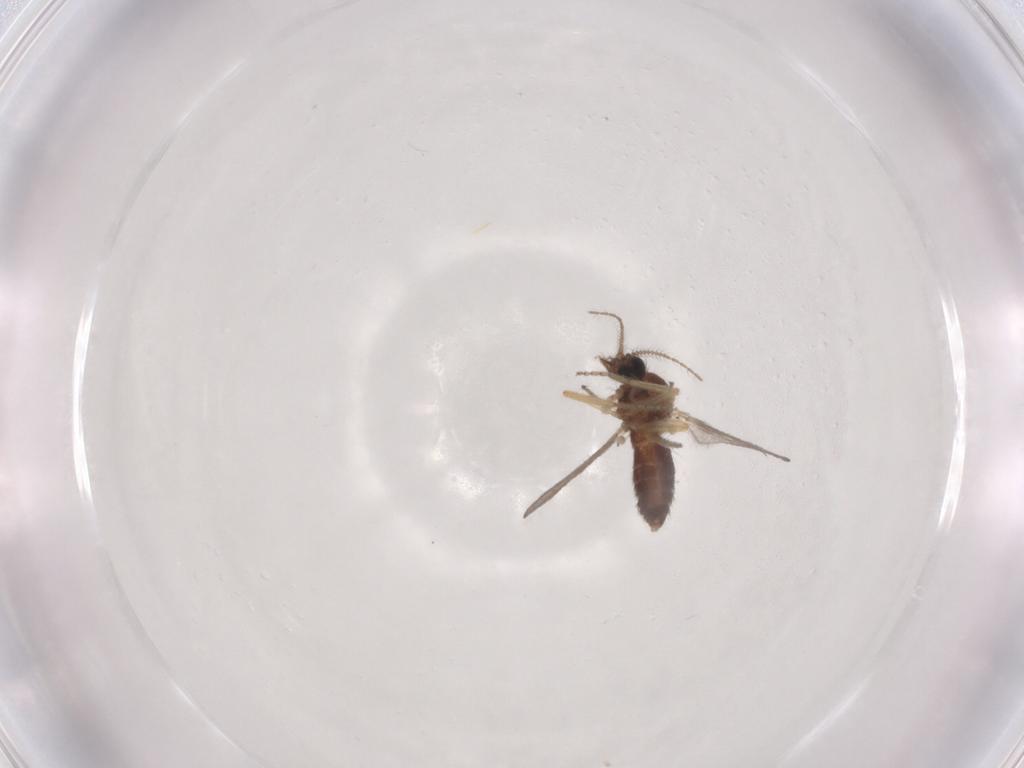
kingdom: Animalia
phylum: Arthropoda
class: Insecta
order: Diptera
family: Ceratopogonidae
